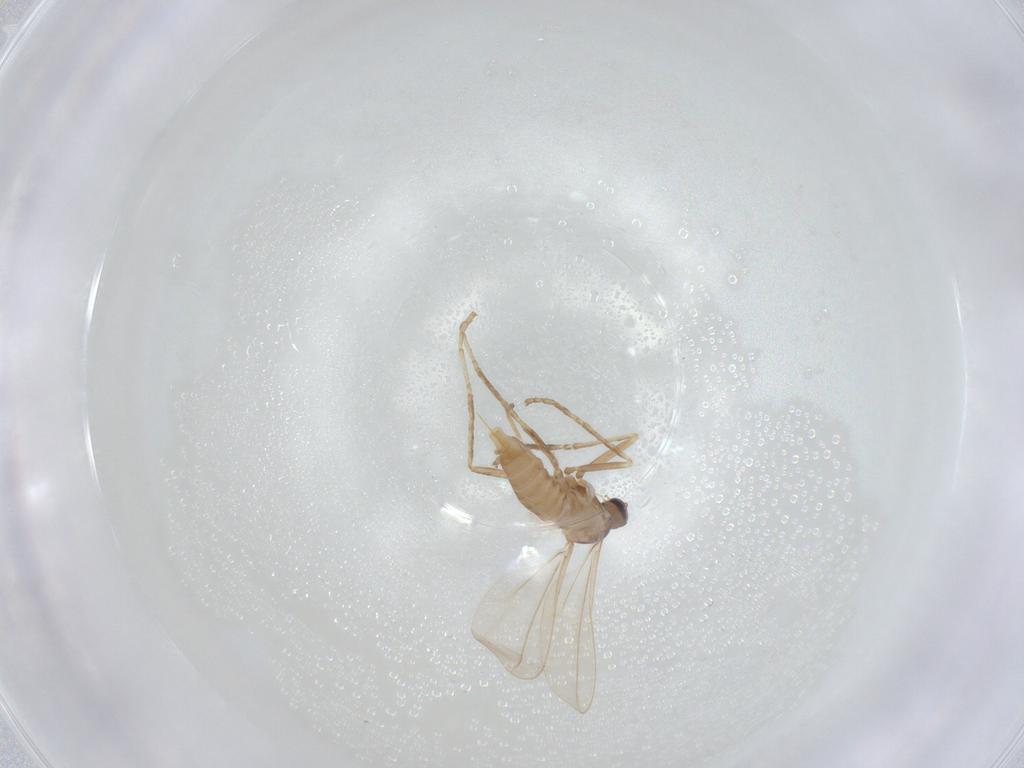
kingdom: Animalia
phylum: Arthropoda
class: Insecta
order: Diptera
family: Cecidomyiidae
